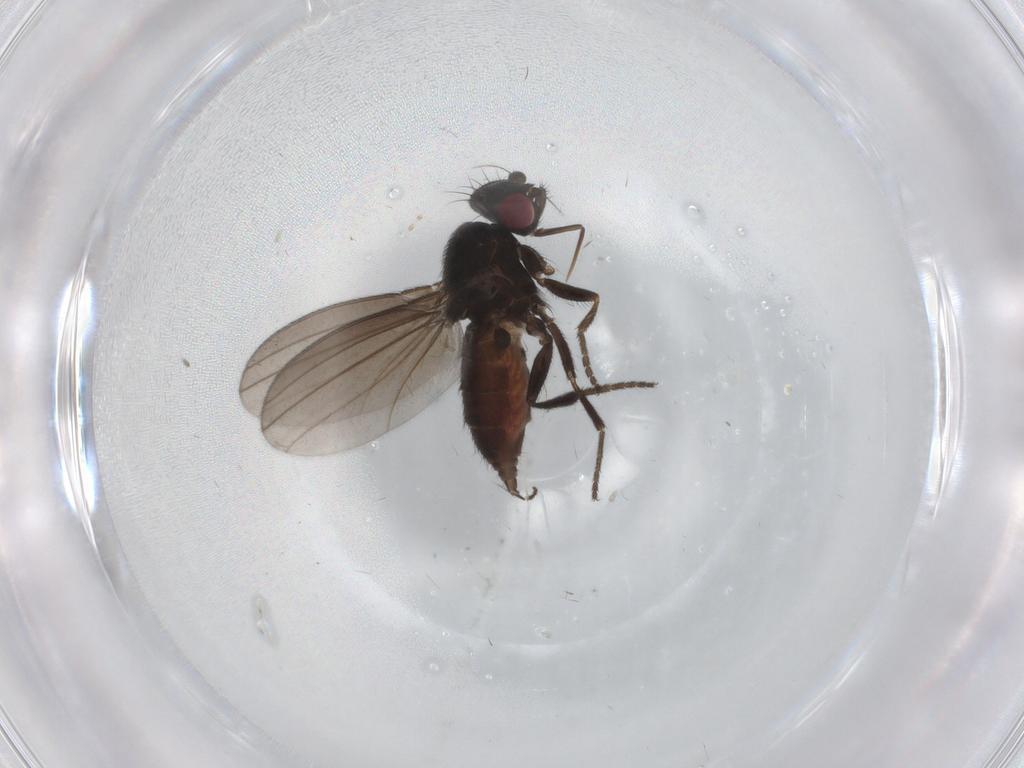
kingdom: Animalia
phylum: Arthropoda
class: Insecta
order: Diptera
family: Milichiidae
